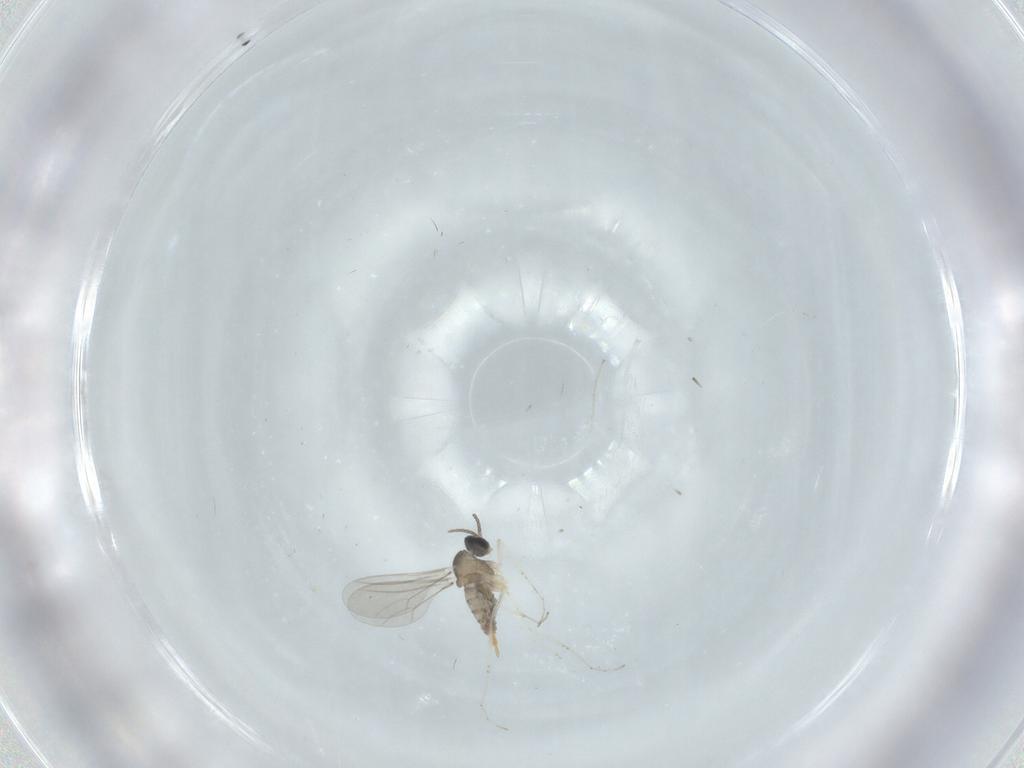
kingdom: Animalia
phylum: Arthropoda
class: Insecta
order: Diptera
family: Cecidomyiidae
